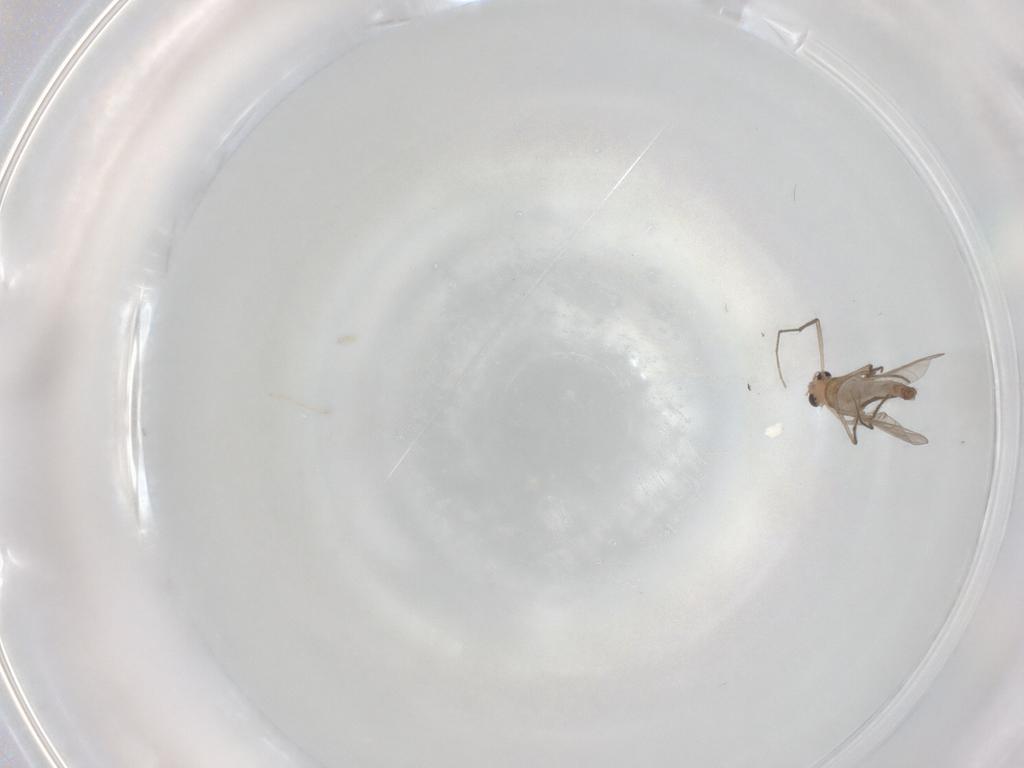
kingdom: Animalia
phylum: Arthropoda
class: Insecta
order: Diptera
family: Chironomidae
